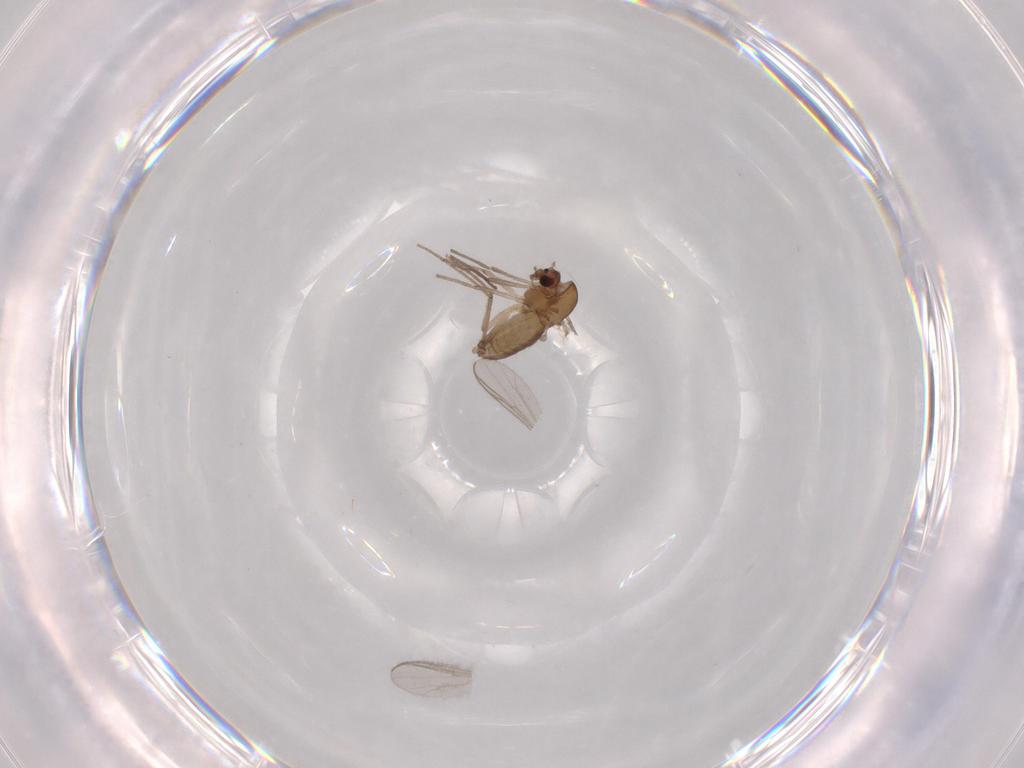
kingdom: Animalia
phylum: Arthropoda
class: Insecta
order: Diptera
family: Chironomidae
